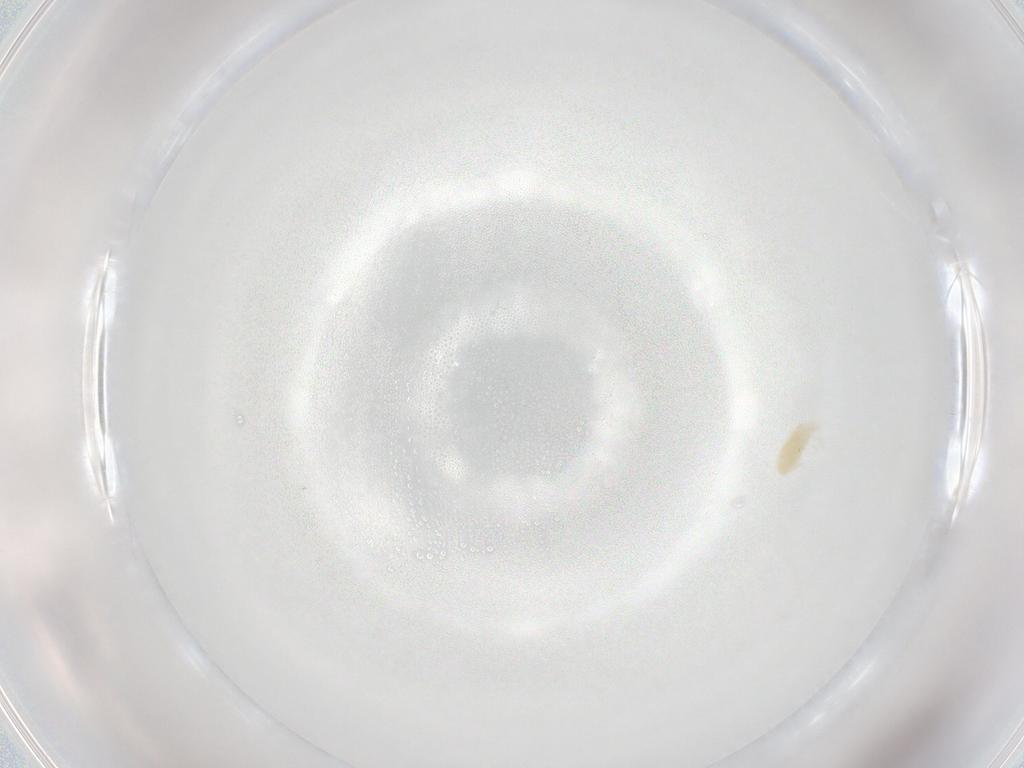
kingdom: Animalia
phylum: Arthropoda
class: Arachnida
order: Trombidiformes
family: Eupodidae
